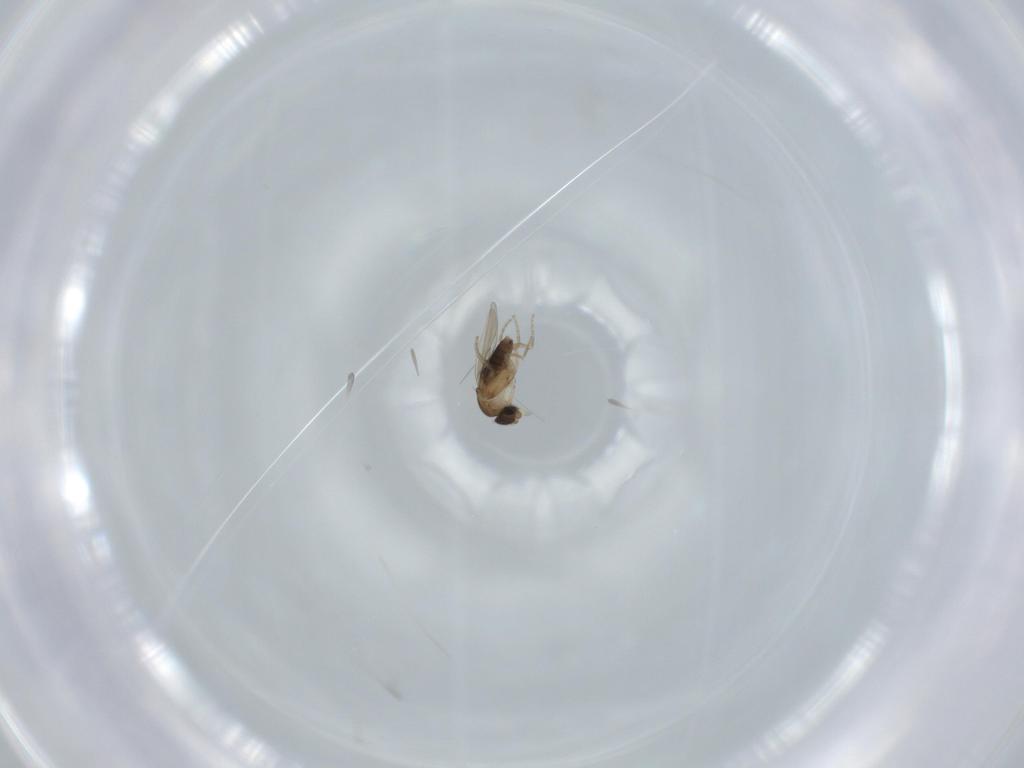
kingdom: Animalia
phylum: Arthropoda
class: Insecta
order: Diptera
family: Phoridae
